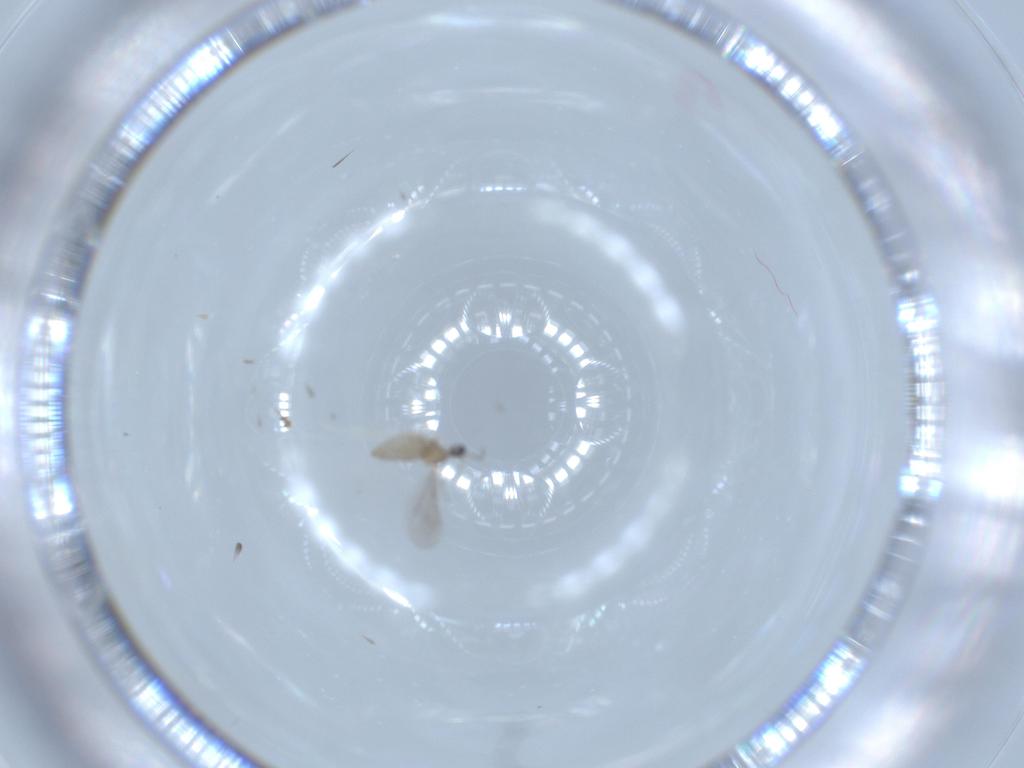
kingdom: Animalia
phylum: Arthropoda
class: Insecta
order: Diptera
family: Cecidomyiidae
